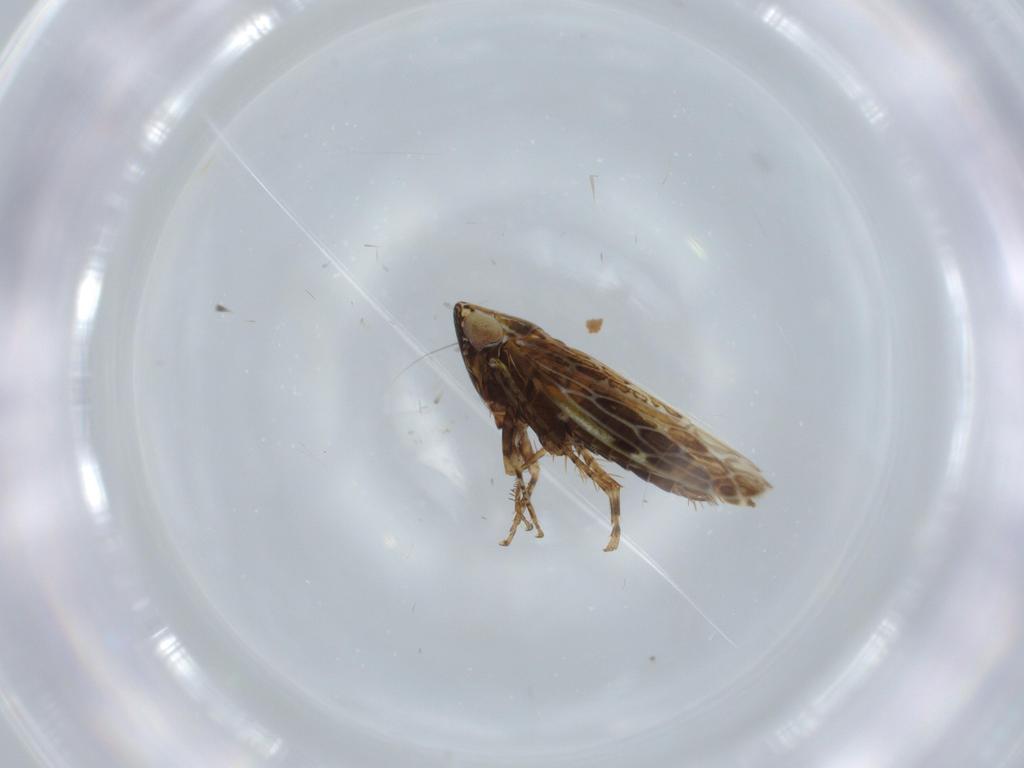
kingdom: Animalia
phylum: Arthropoda
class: Insecta
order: Hemiptera
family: Cicadellidae
